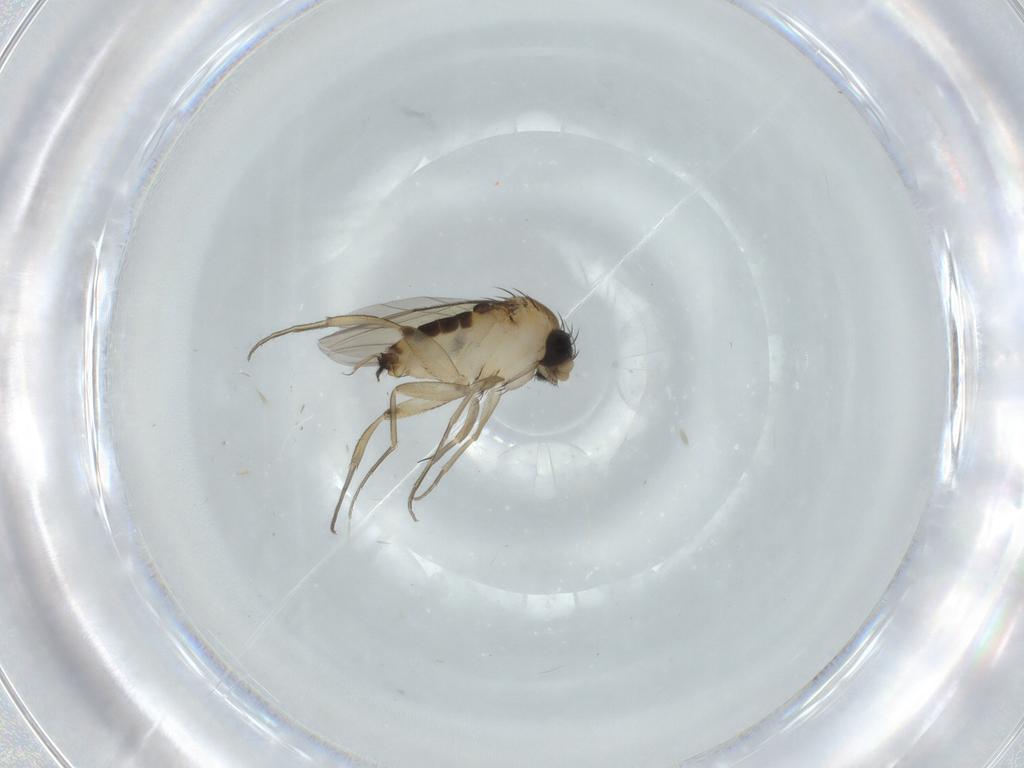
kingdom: Animalia
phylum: Arthropoda
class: Insecta
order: Diptera
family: Phoridae
